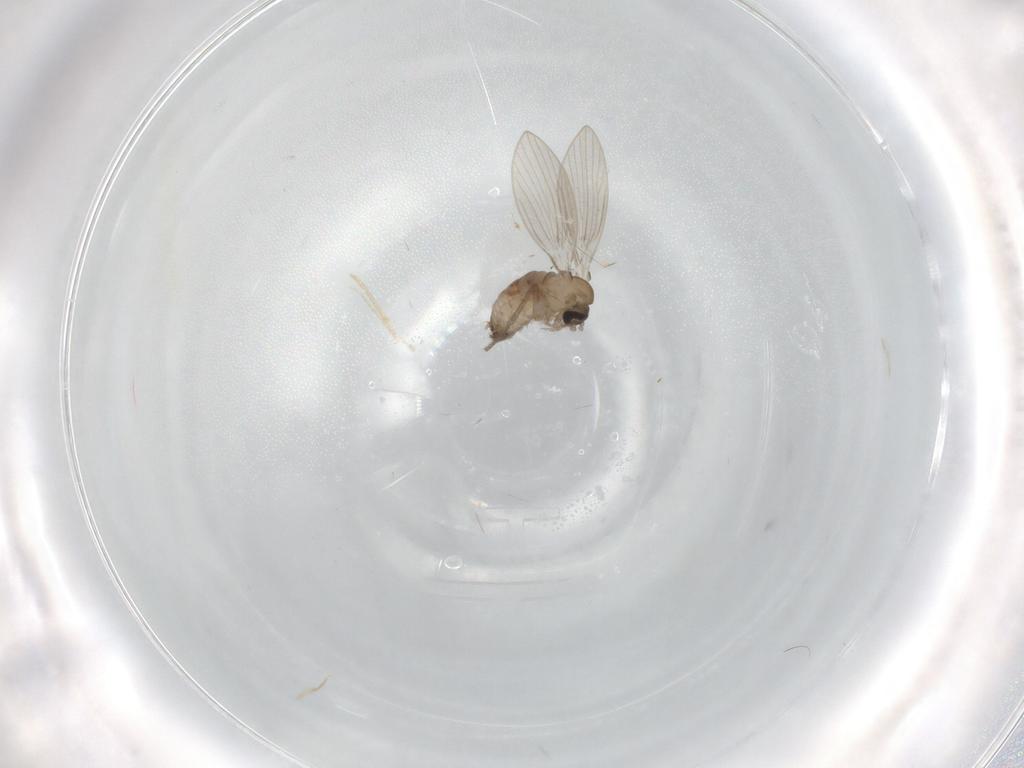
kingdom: Animalia
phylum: Arthropoda
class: Insecta
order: Diptera
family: Psychodidae
